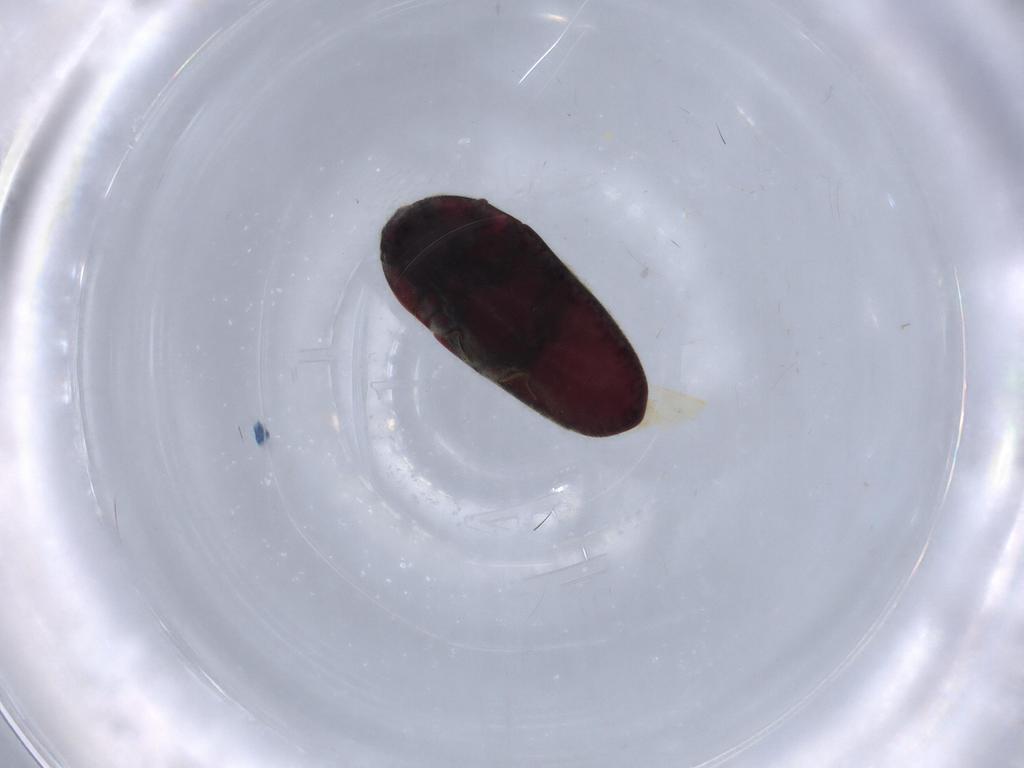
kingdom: Animalia
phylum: Arthropoda
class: Insecta
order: Coleoptera
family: Throscidae
